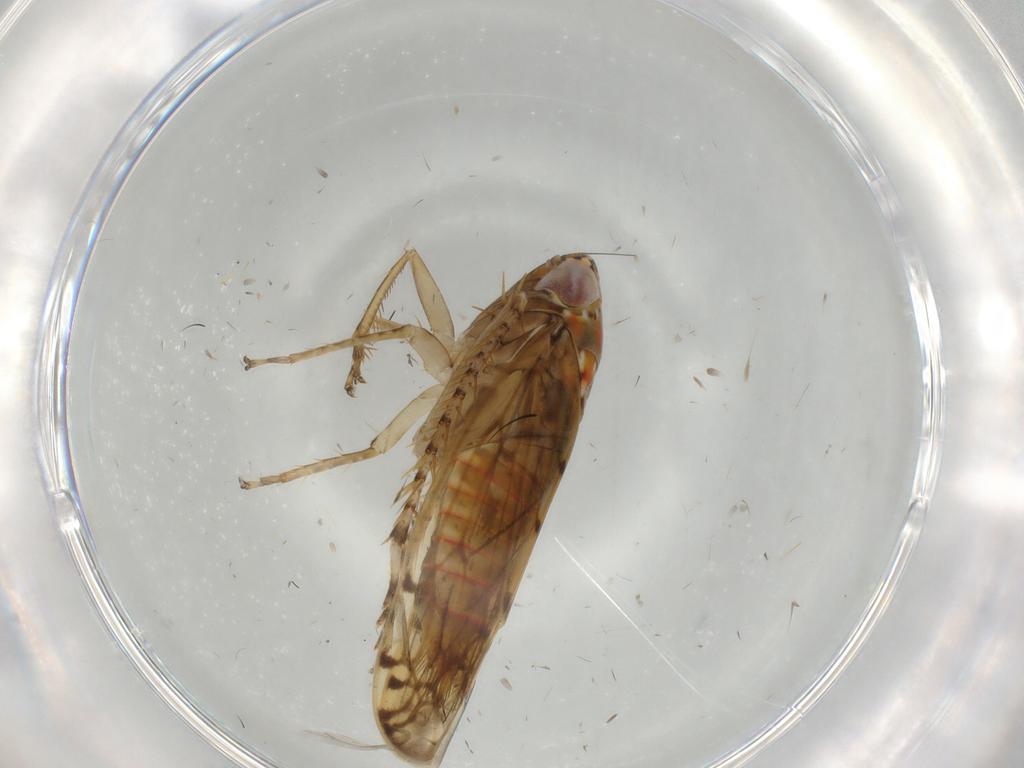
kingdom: Animalia
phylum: Arthropoda
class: Insecta
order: Hemiptera
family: Cicadellidae
